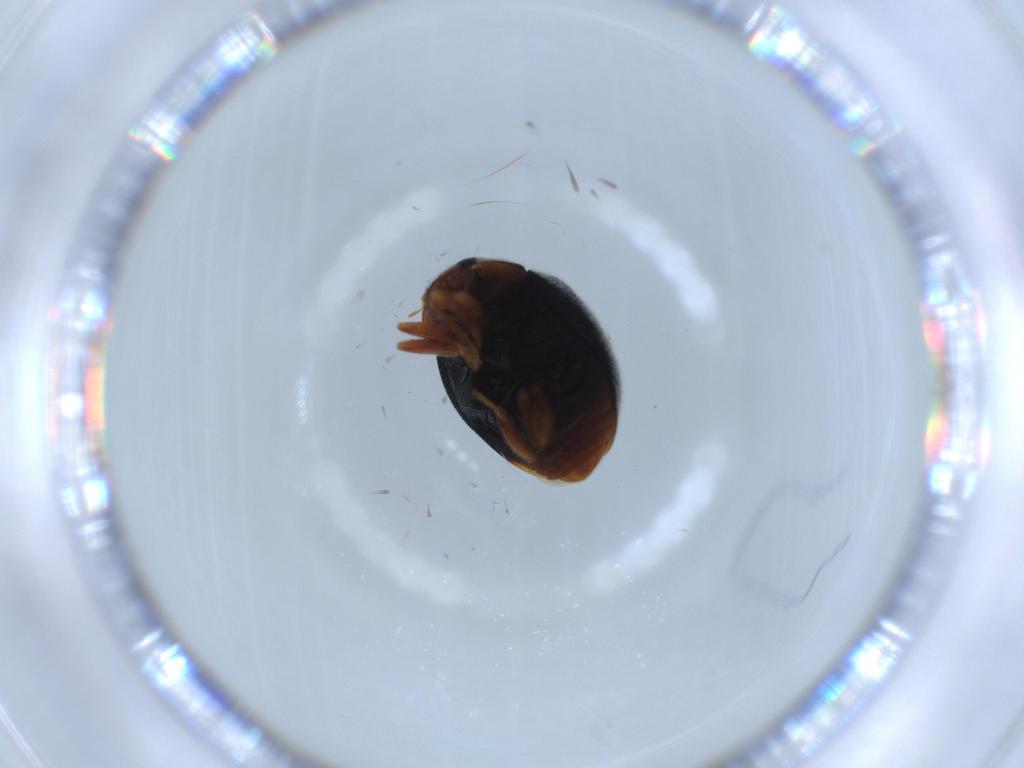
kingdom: Animalia
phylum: Arthropoda
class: Insecta
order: Coleoptera
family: Coccinellidae
